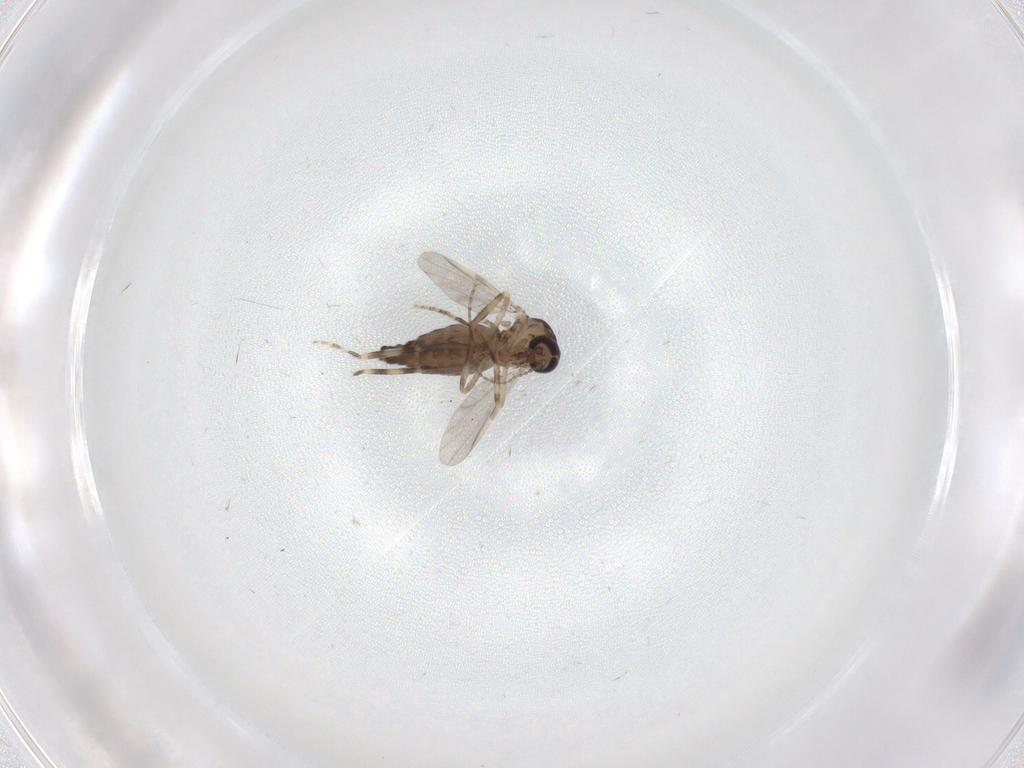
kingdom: Animalia
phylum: Arthropoda
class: Insecta
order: Diptera
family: Ceratopogonidae
